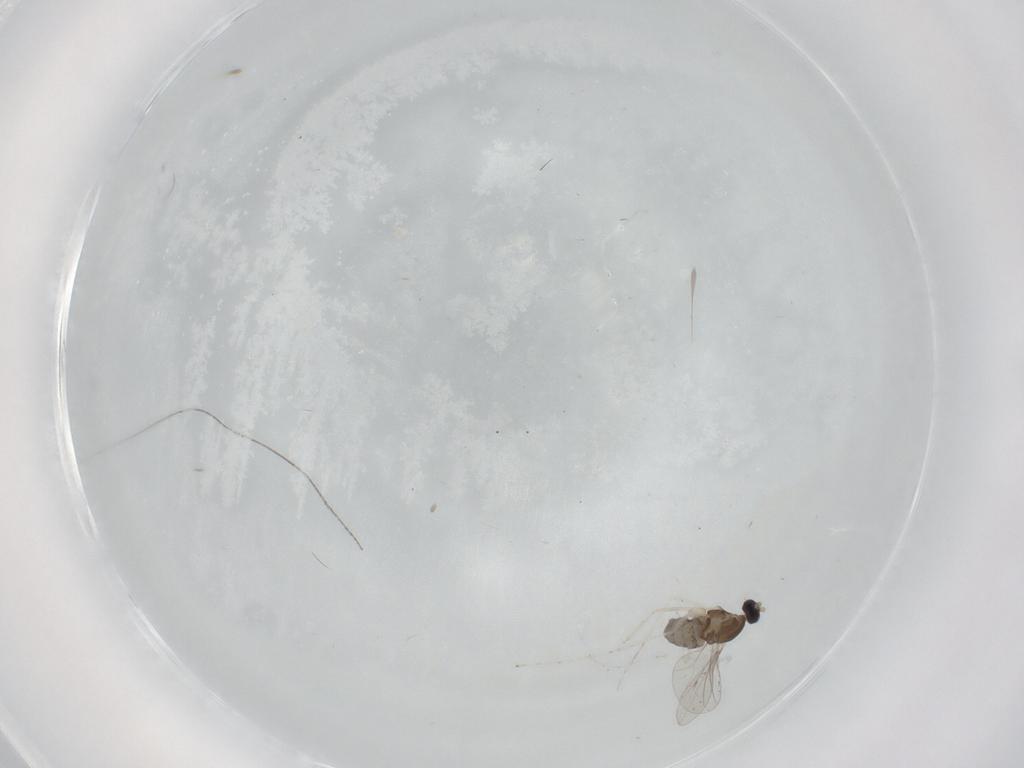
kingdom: Animalia
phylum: Arthropoda
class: Insecta
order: Diptera
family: Cecidomyiidae
